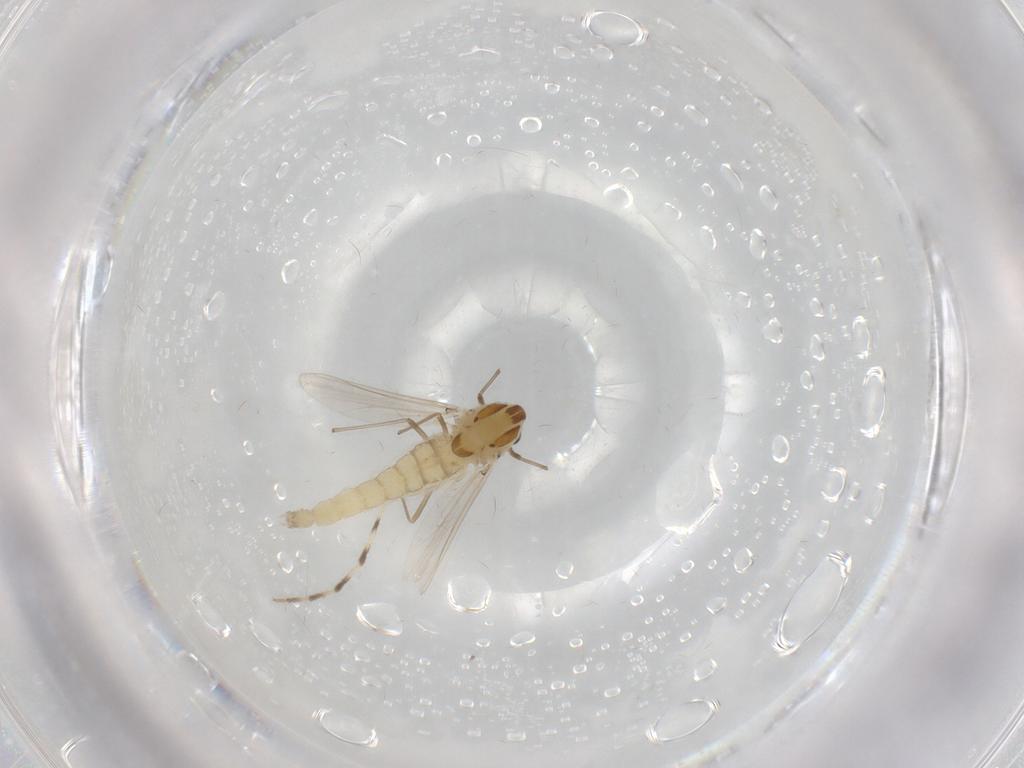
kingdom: Animalia
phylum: Arthropoda
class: Insecta
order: Diptera
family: Chironomidae
